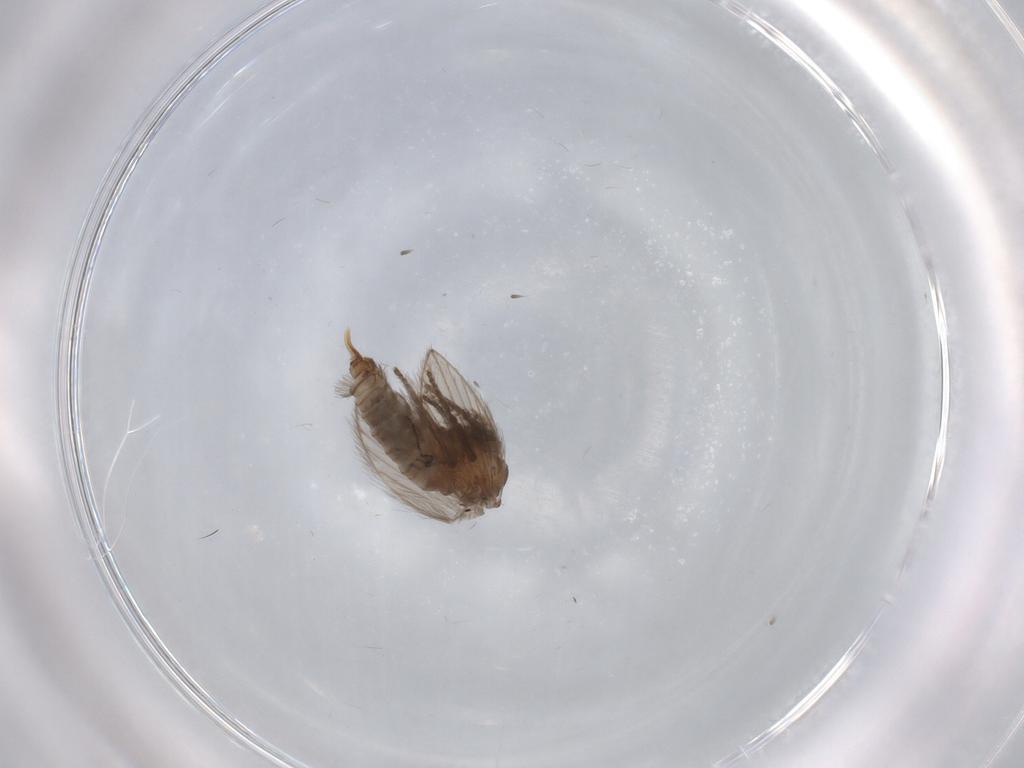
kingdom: Animalia
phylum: Arthropoda
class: Insecta
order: Diptera
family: Psychodidae
